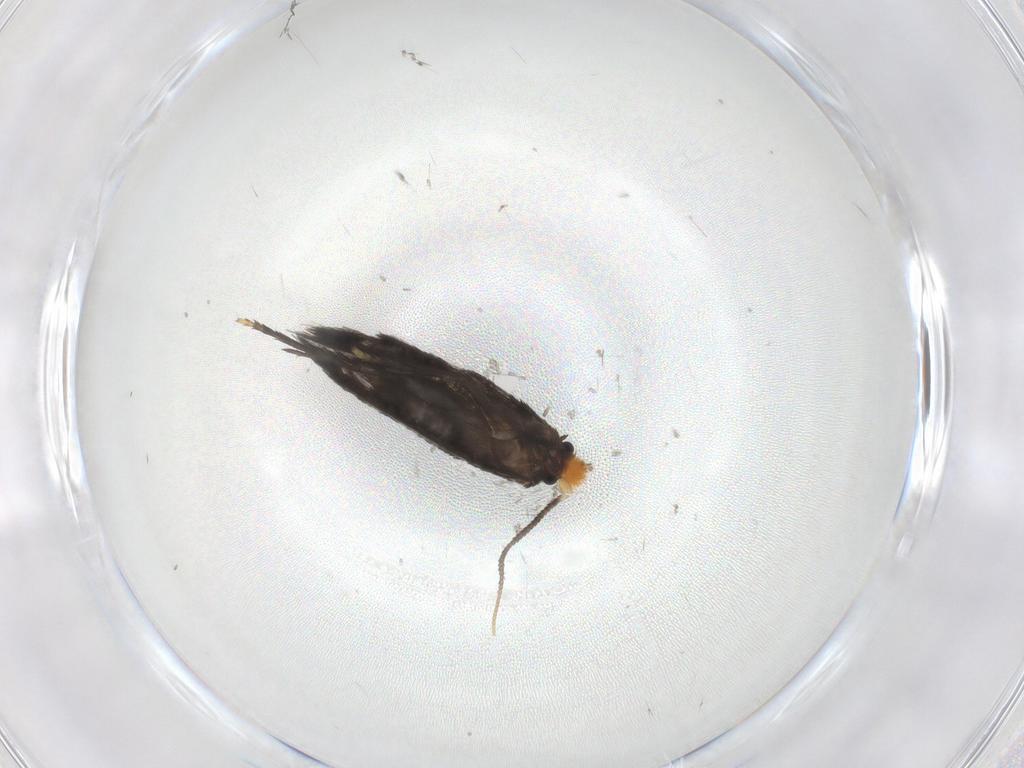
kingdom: Animalia
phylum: Arthropoda
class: Insecta
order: Lepidoptera
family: Nepticulidae
